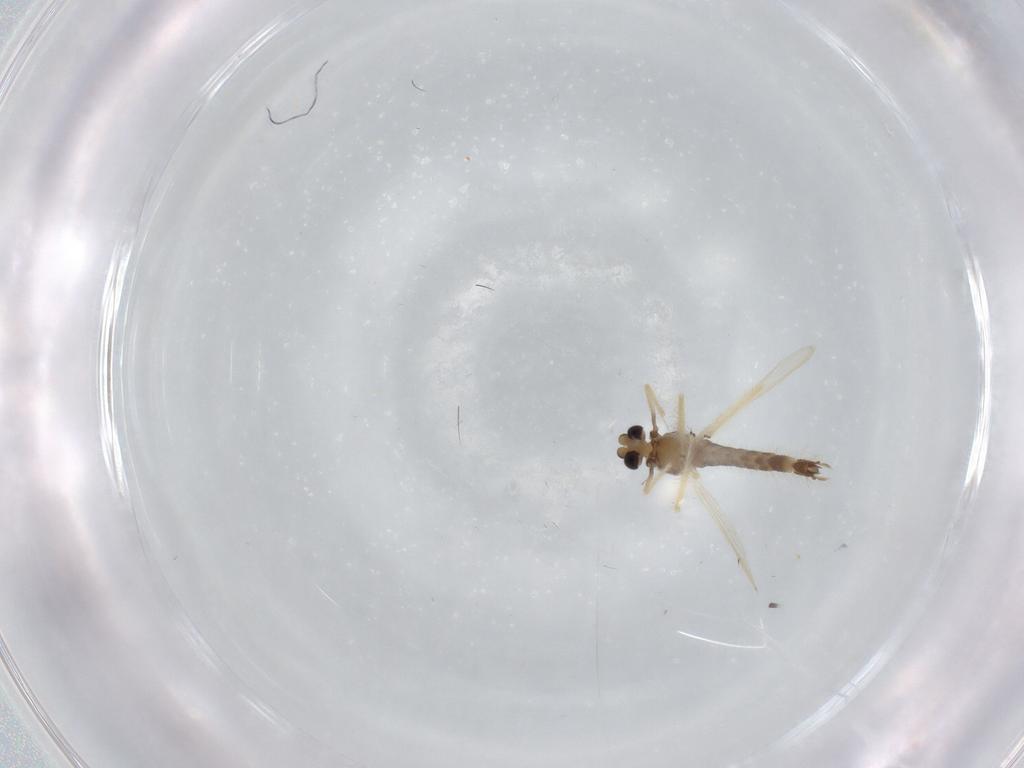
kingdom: Animalia
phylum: Arthropoda
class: Insecta
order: Diptera
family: Chironomidae
